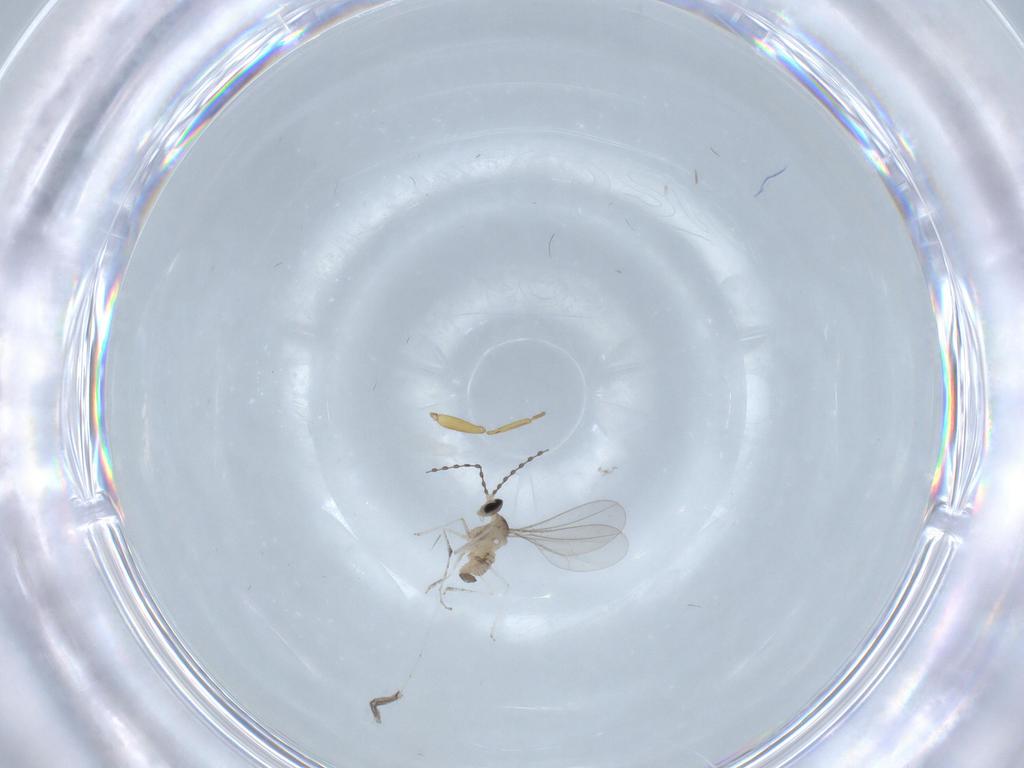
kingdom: Animalia
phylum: Arthropoda
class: Insecta
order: Diptera
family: Hybotidae
